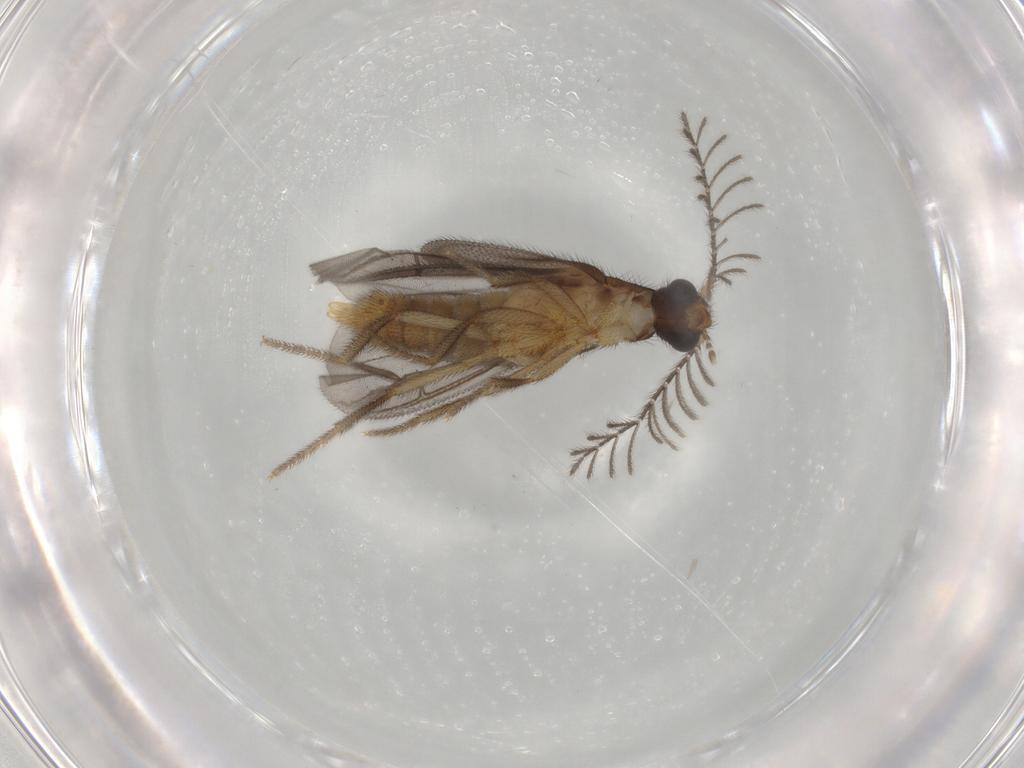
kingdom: Animalia
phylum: Arthropoda
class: Insecta
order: Coleoptera
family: Phengodidae
